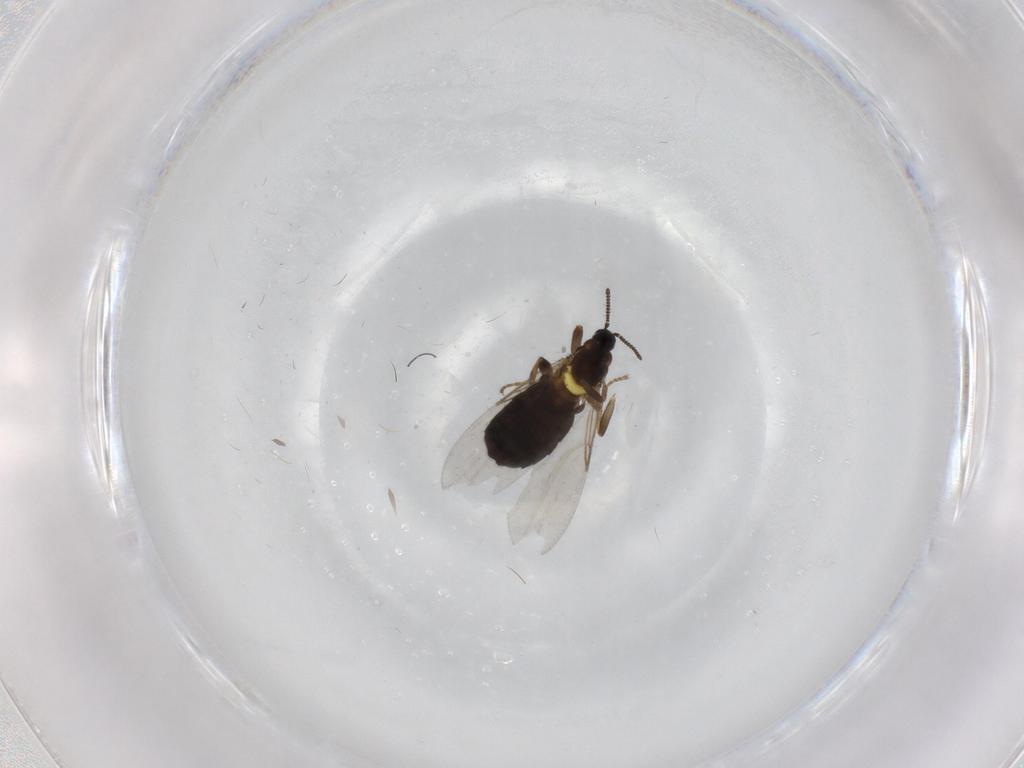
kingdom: Animalia
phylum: Arthropoda
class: Insecta
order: Diptera
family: Scatopsidae
